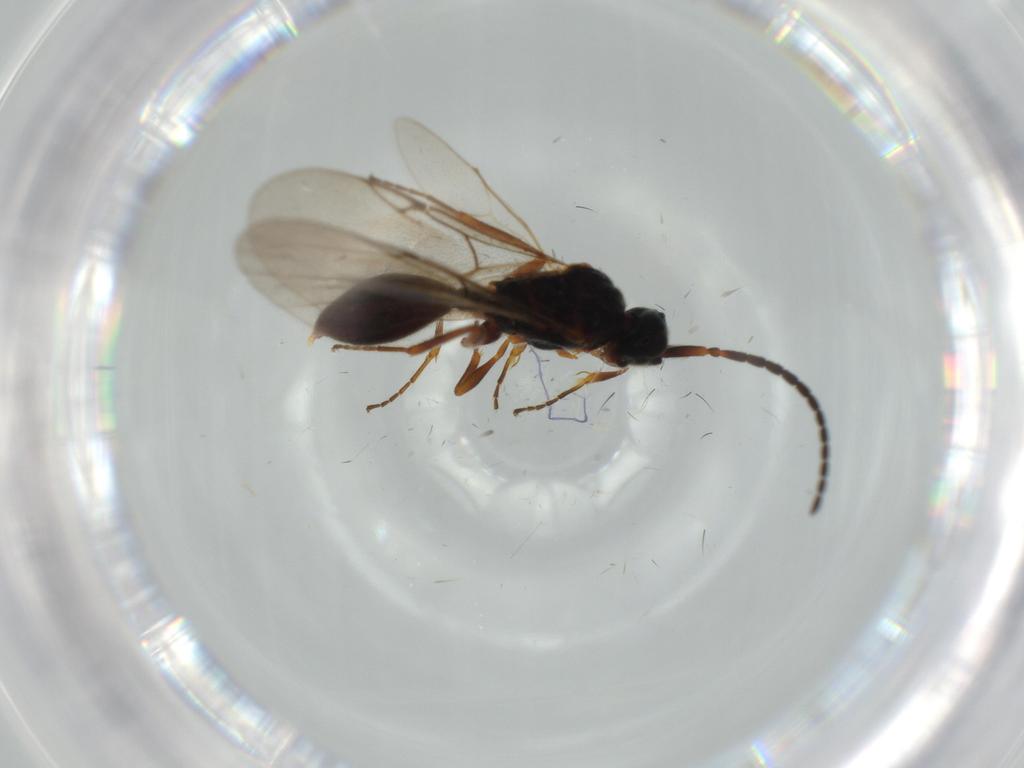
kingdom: Animalia
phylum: Arthropoda
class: Insecta
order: Hymenoptera
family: Diapriidae
